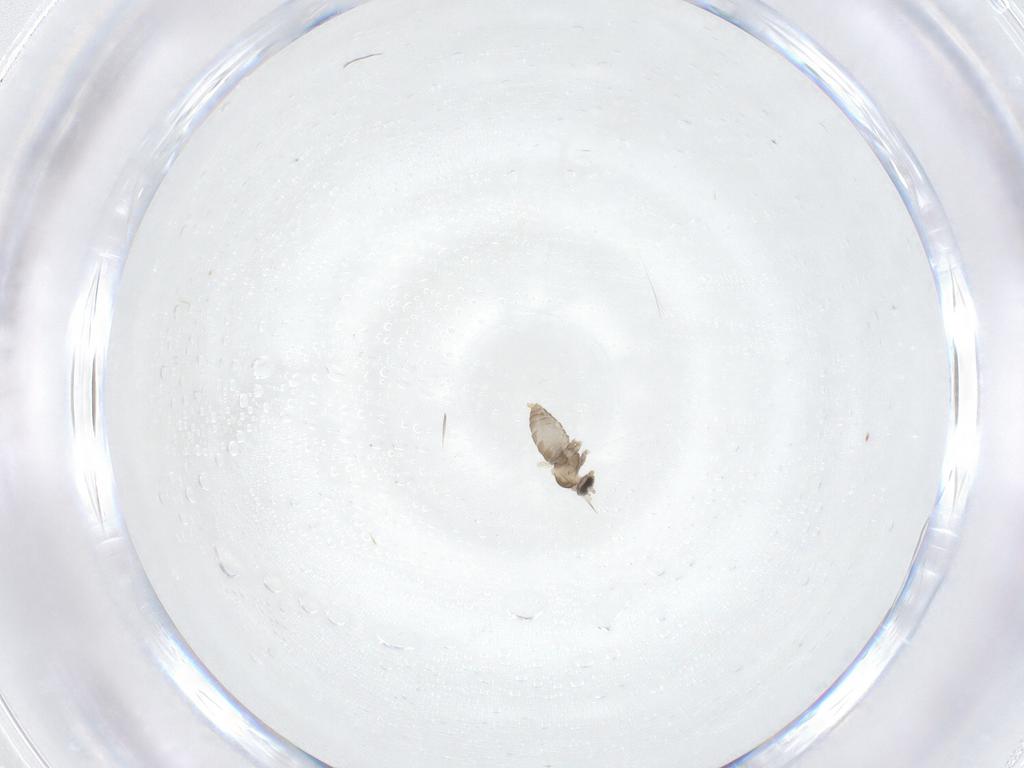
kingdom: Animalia
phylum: Arthropoda
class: Insecta
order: Diptera
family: Cecidomyiidae
